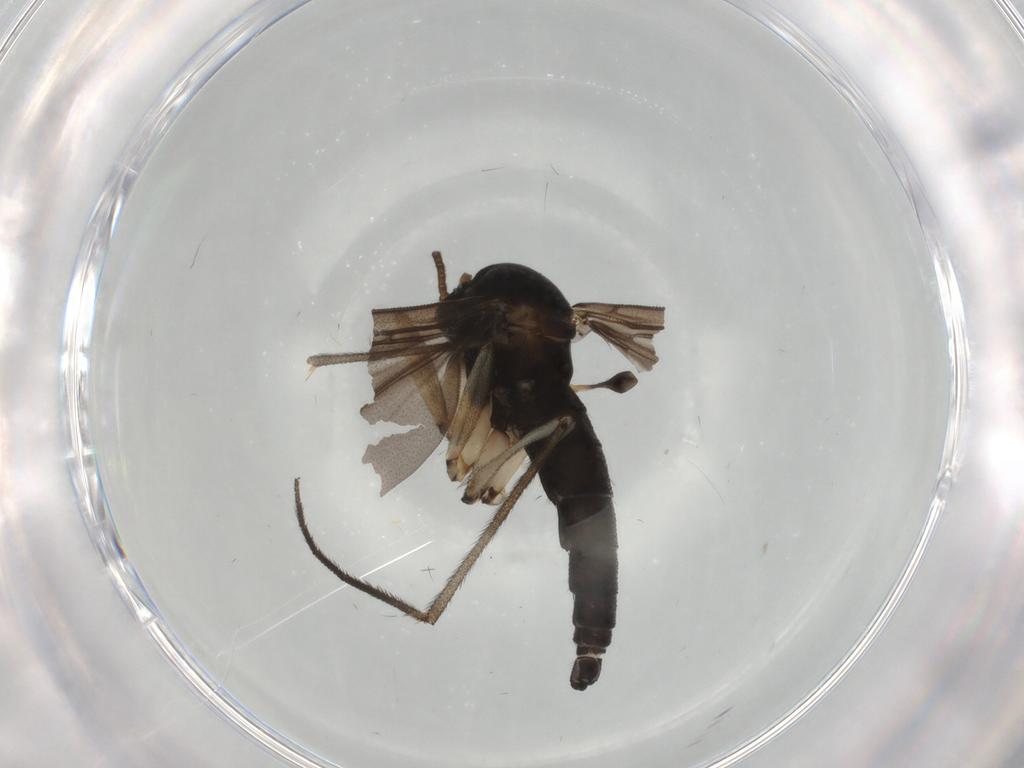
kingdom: Animalia
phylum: Arthropoda
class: Insecta
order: Diptera
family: Sciaridae
